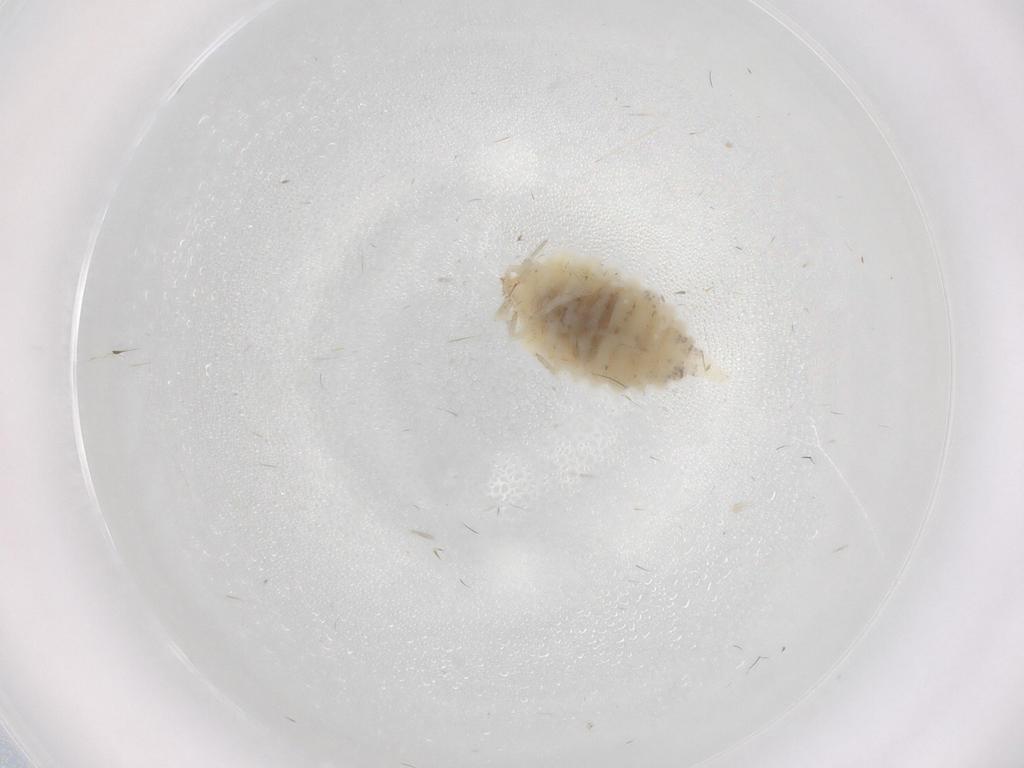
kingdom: Animalia
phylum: Arthropoda
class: Insecta
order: Neuroptera
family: Coniopterygidae
